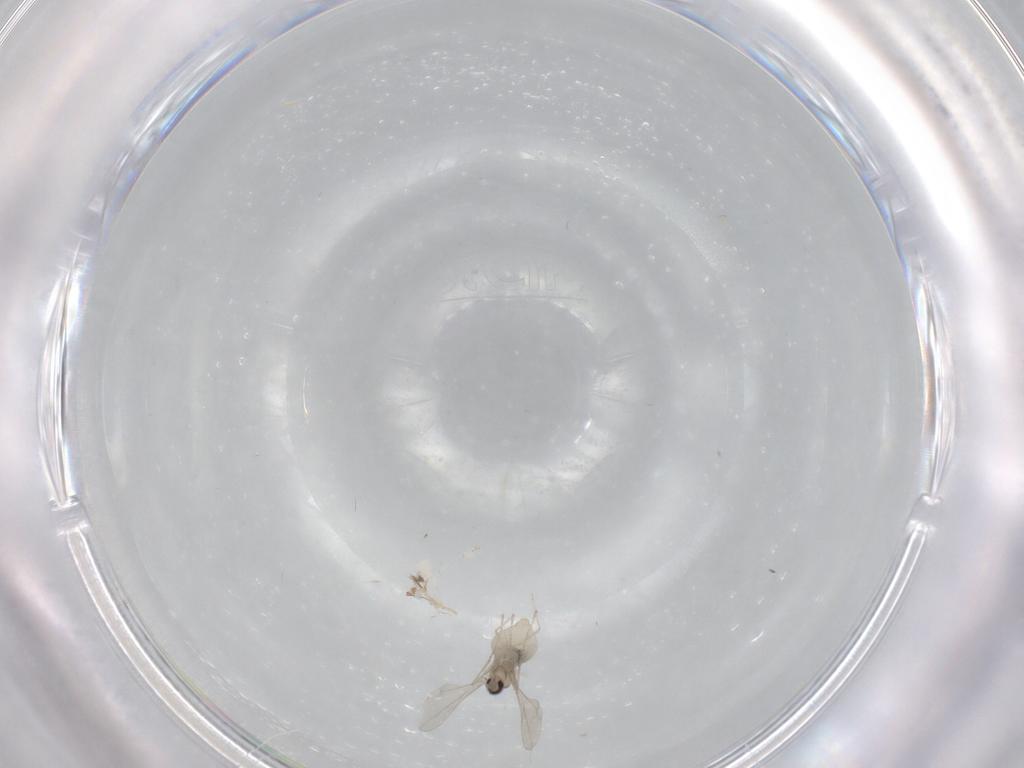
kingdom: Animalia
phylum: Arthropoda
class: Insecta
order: Diptera
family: Cecidomyiidae
